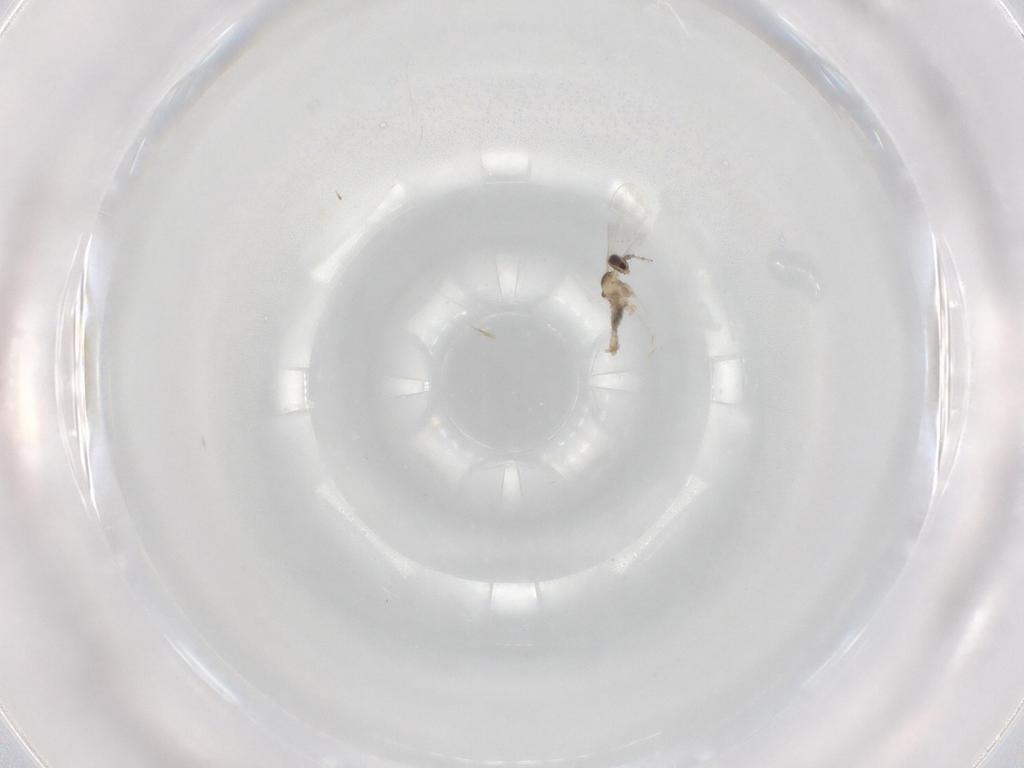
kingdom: Animalia
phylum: Arthropoda
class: Insecta
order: Diptera
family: Cecidomyiidae
